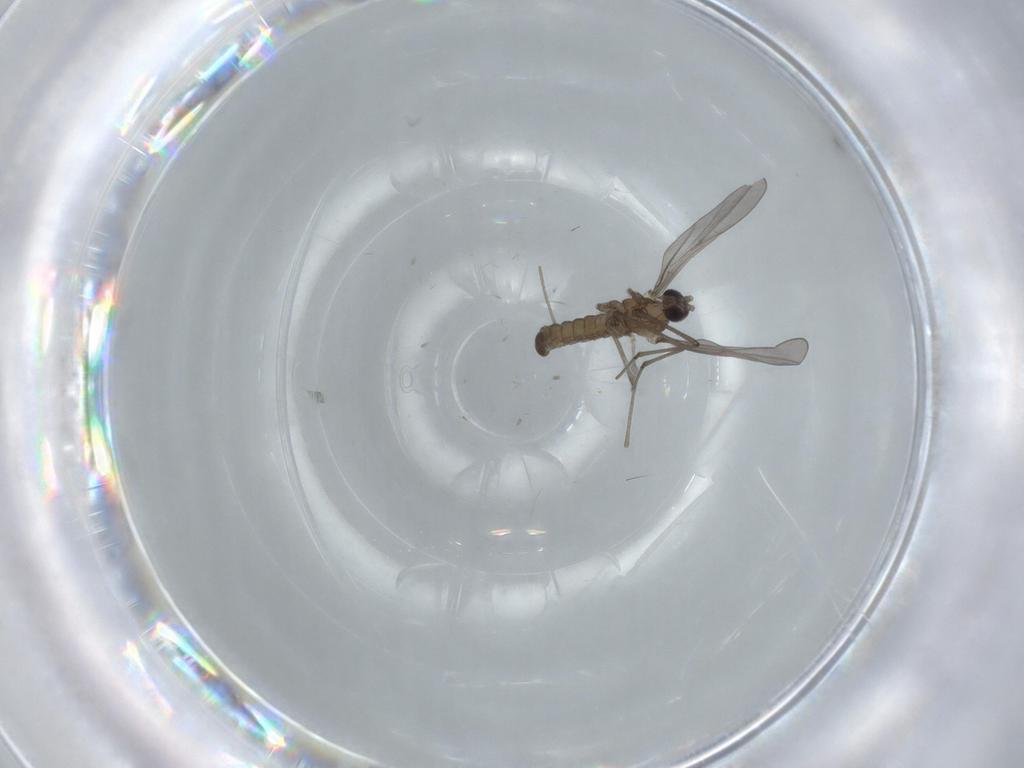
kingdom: Animalia
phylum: Arthropoda
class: Insecta
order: Diptera
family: Cecidomyiidae
